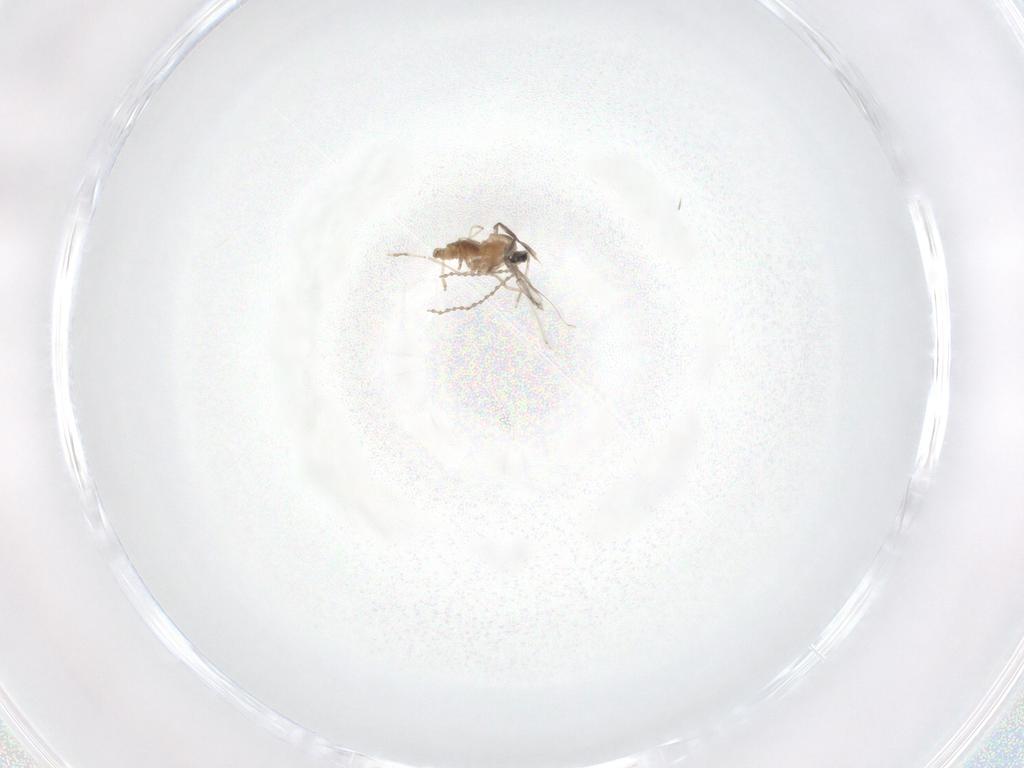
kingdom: Animalia
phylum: Arthropoda
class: Insecta
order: Diptera
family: Chironomidae
